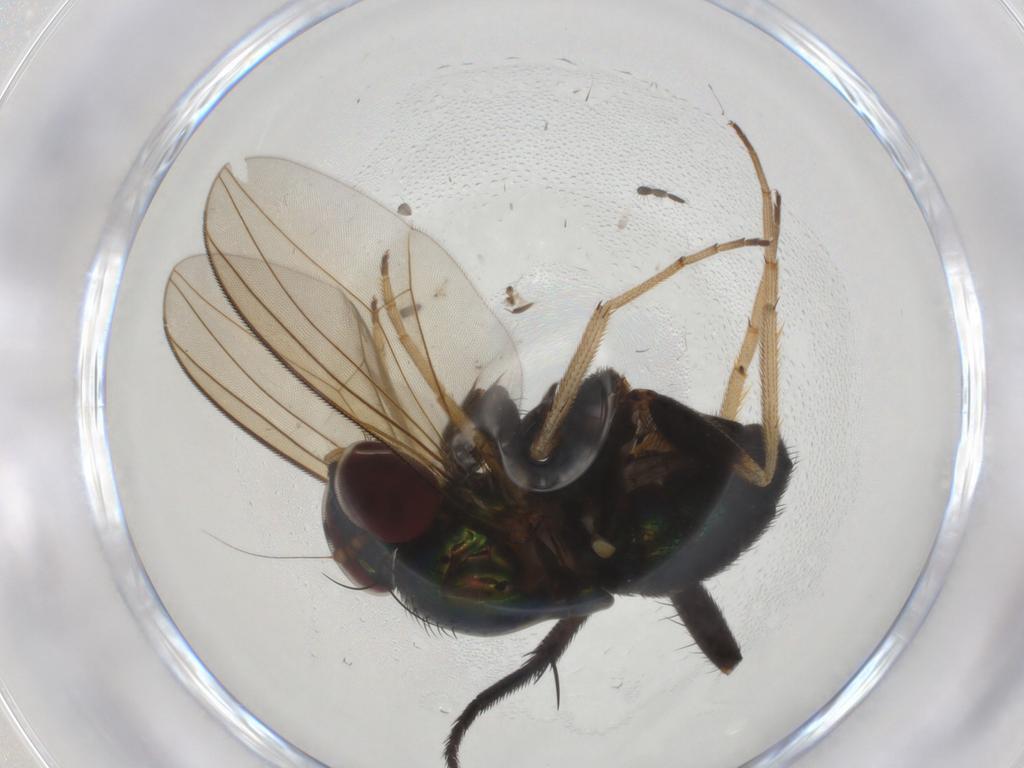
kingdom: Animalia
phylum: Arthropoda
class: Insecta
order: Diptera
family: Dolichopodidae
